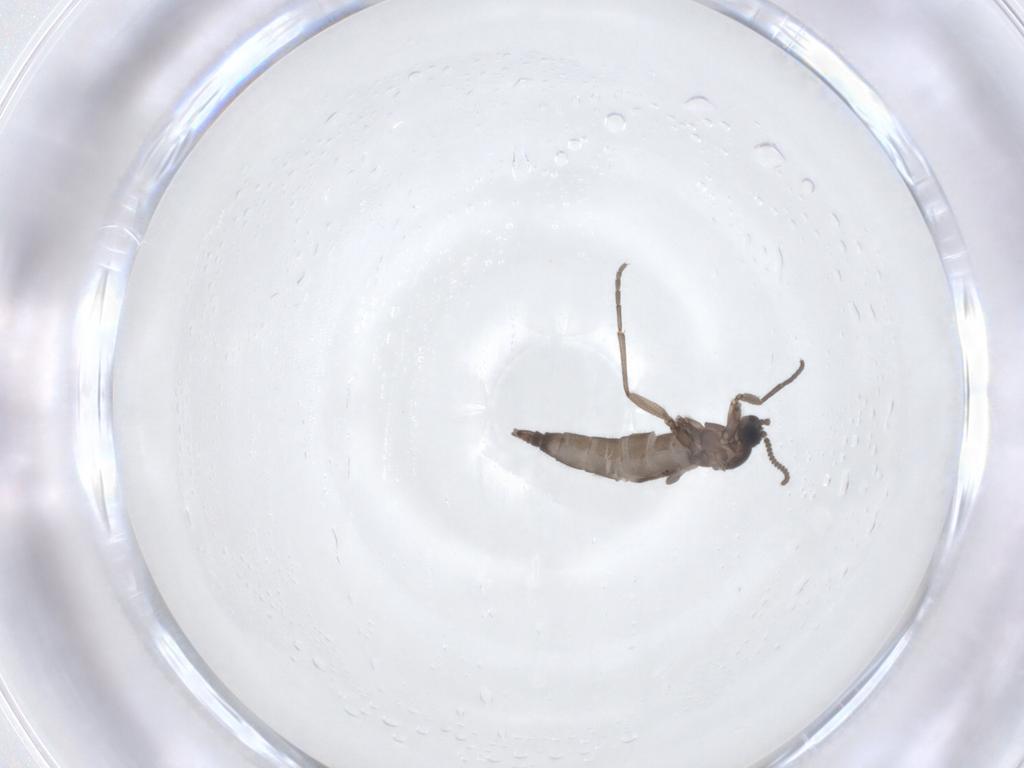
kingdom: Animalia
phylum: Arthropoda
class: Insecta
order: Diptera
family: Sciaridae
